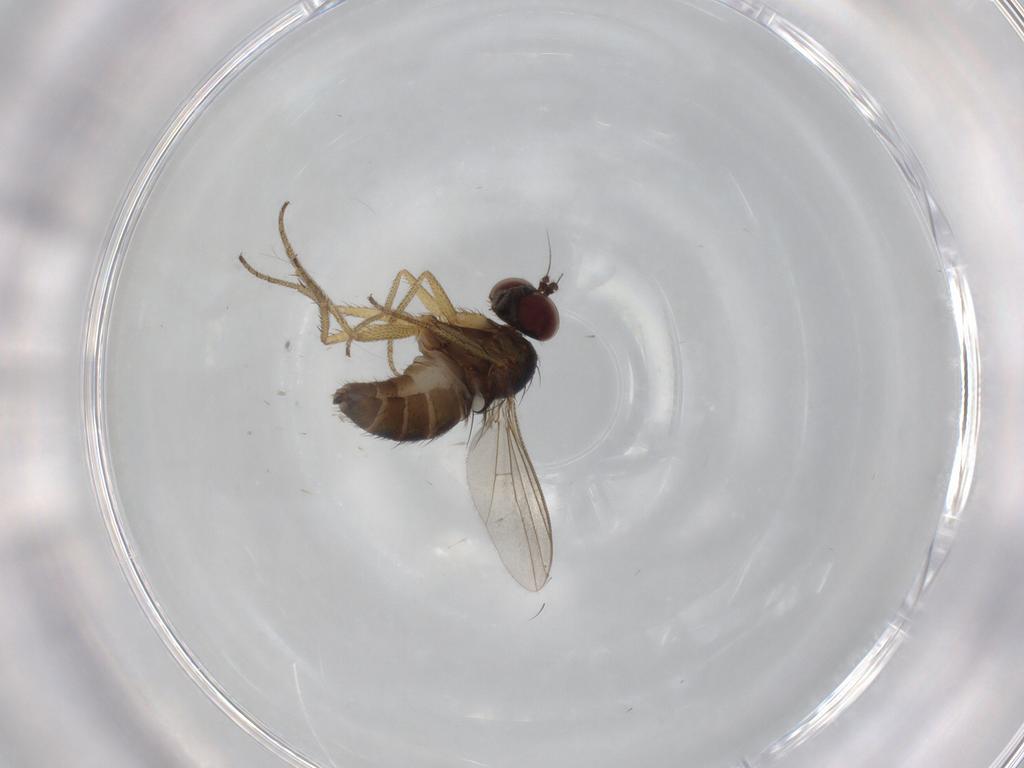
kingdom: Animalia
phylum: Arthropoda
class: Insecta
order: Diptera
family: Dolichopodidae
